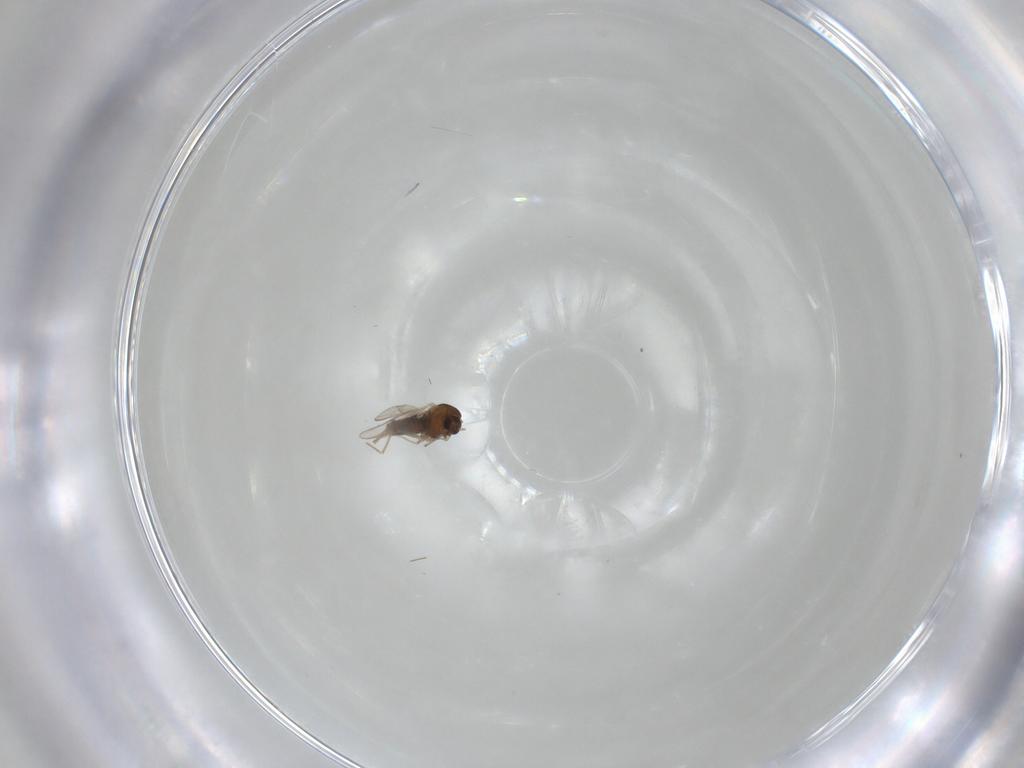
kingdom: Animalia
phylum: Arthropoda
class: Insecta
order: Diptera
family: Chironomidae
